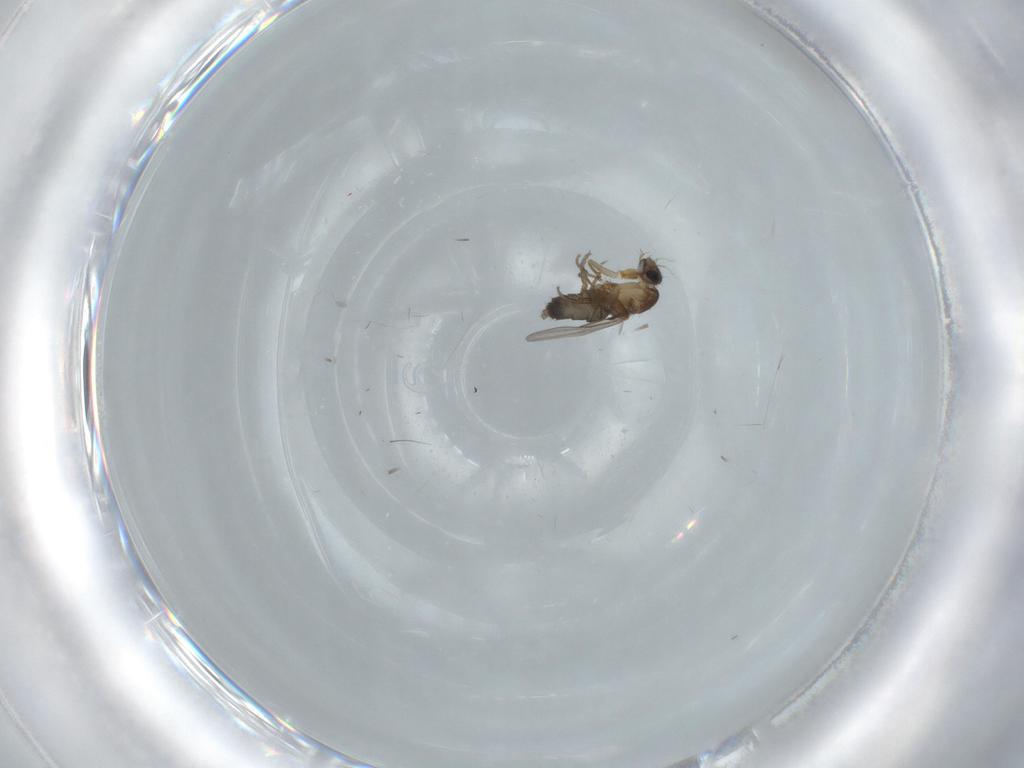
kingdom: Animalia
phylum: Arthropoda
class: Insecta
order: Diptera
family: Phoridae
